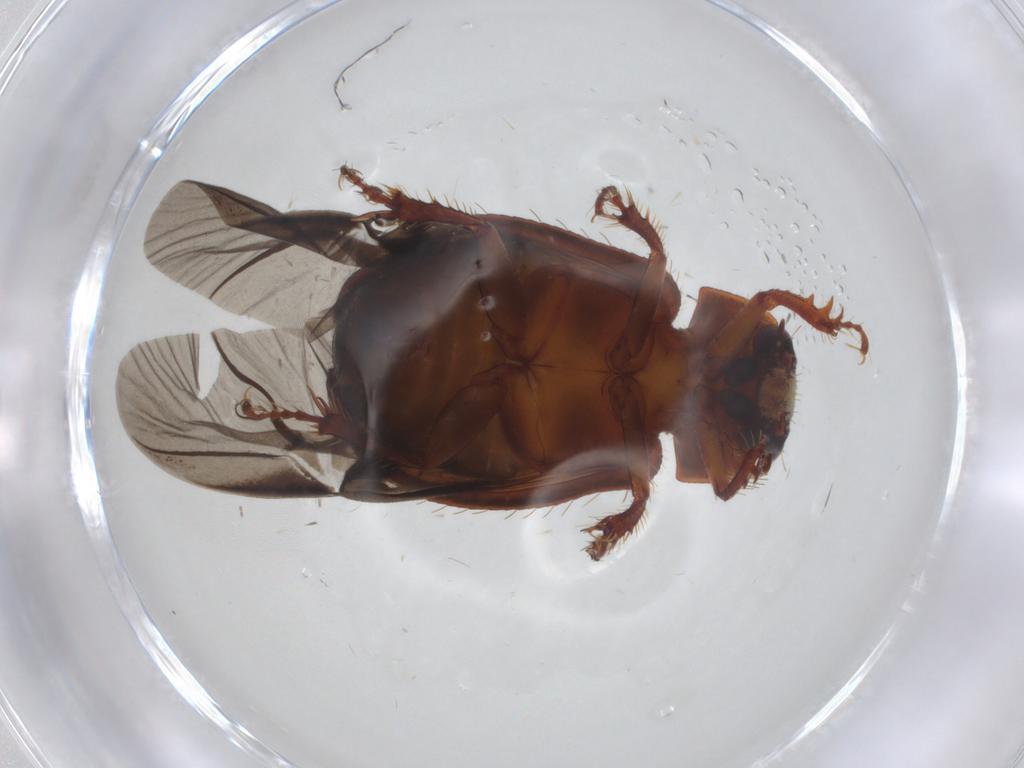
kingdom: Animalia
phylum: Arthropoda
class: Insecta
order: Coleoptera
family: Hybosoridae
